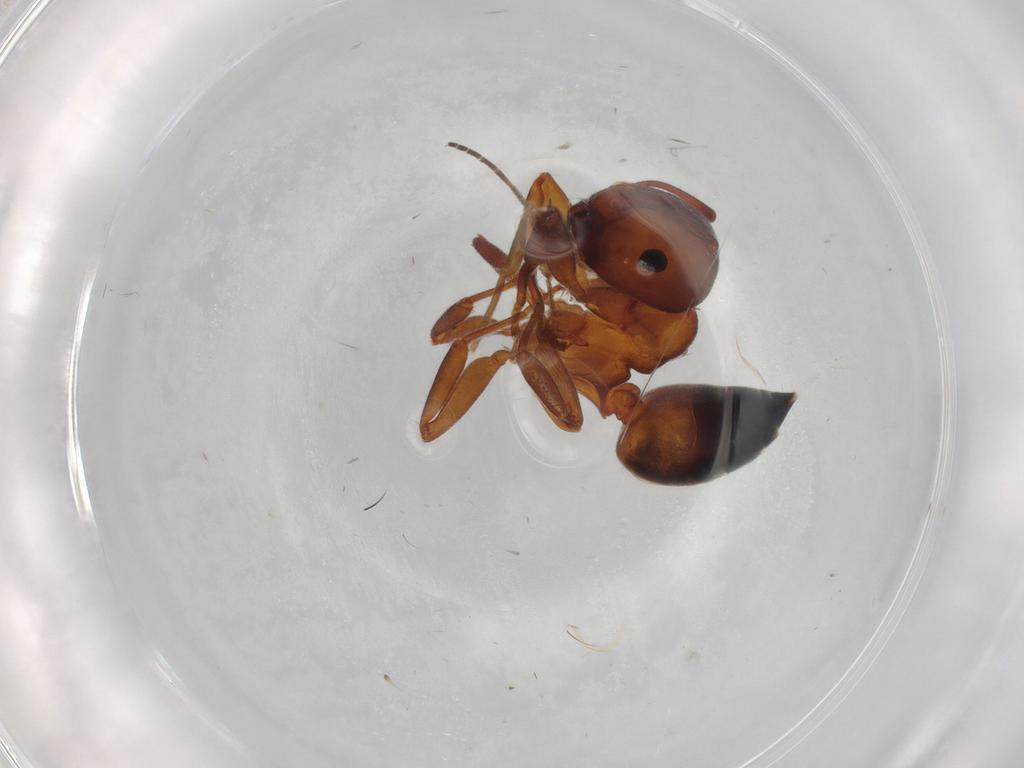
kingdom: Animalia
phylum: Arthropoda
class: Insecta
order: Hymenoptera
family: Formicidae
